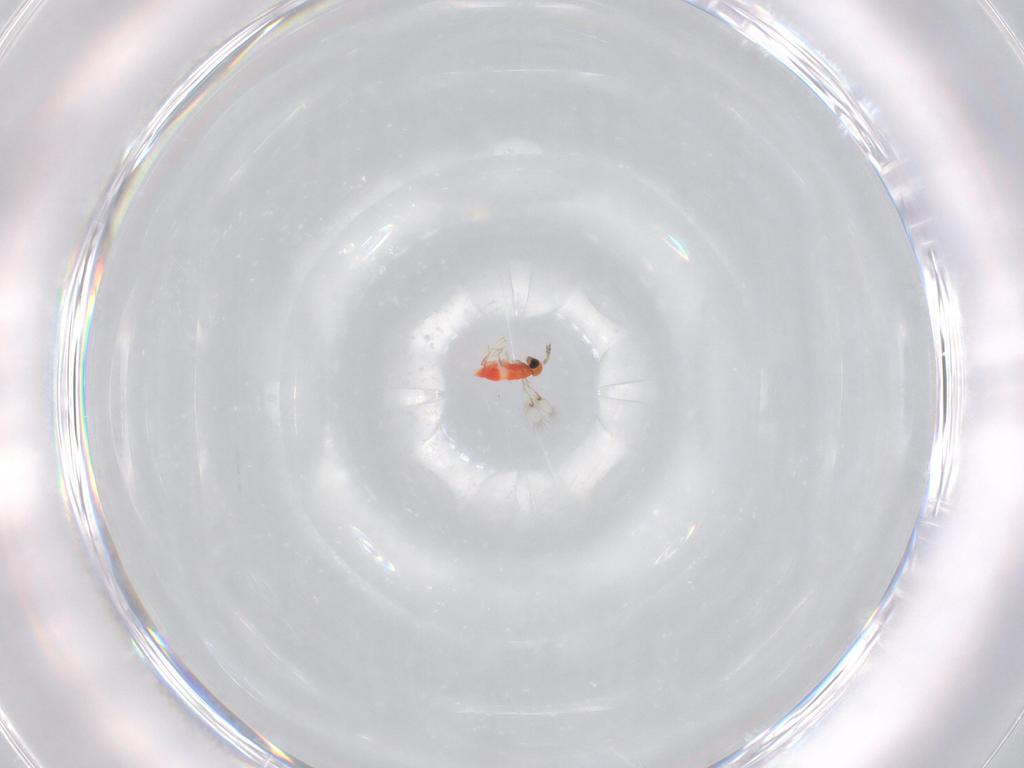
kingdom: Animalia
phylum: Arthropoda
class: Insecta
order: Hymenoptera
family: Trichogrammatidae
